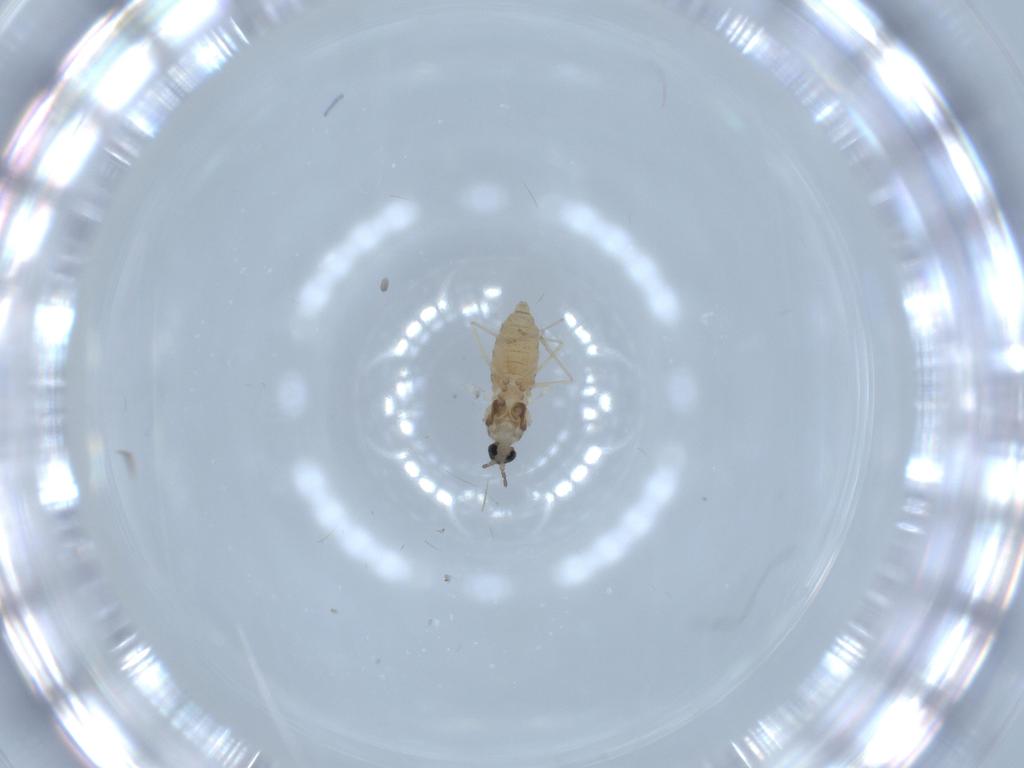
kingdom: Animalia
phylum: Arthropoda
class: Insecta
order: Diptera
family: Cecidomyiidae
